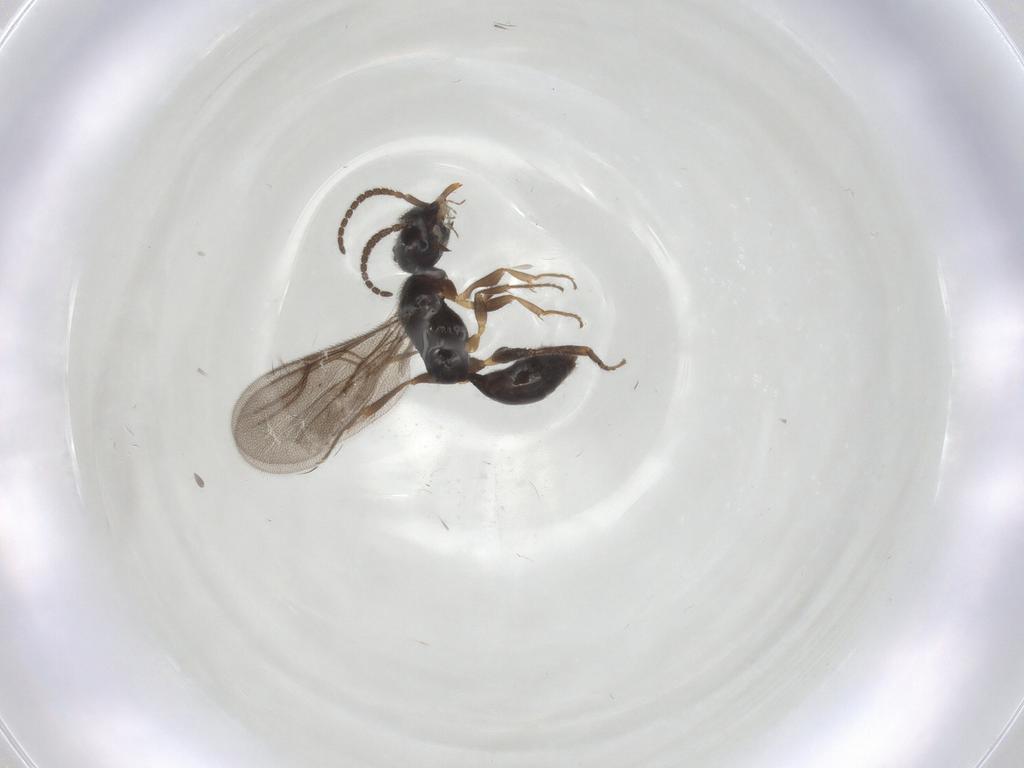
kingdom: Animalia
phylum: Arthropoda
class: Insecta
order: Hymenoptera
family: Bethylidae
